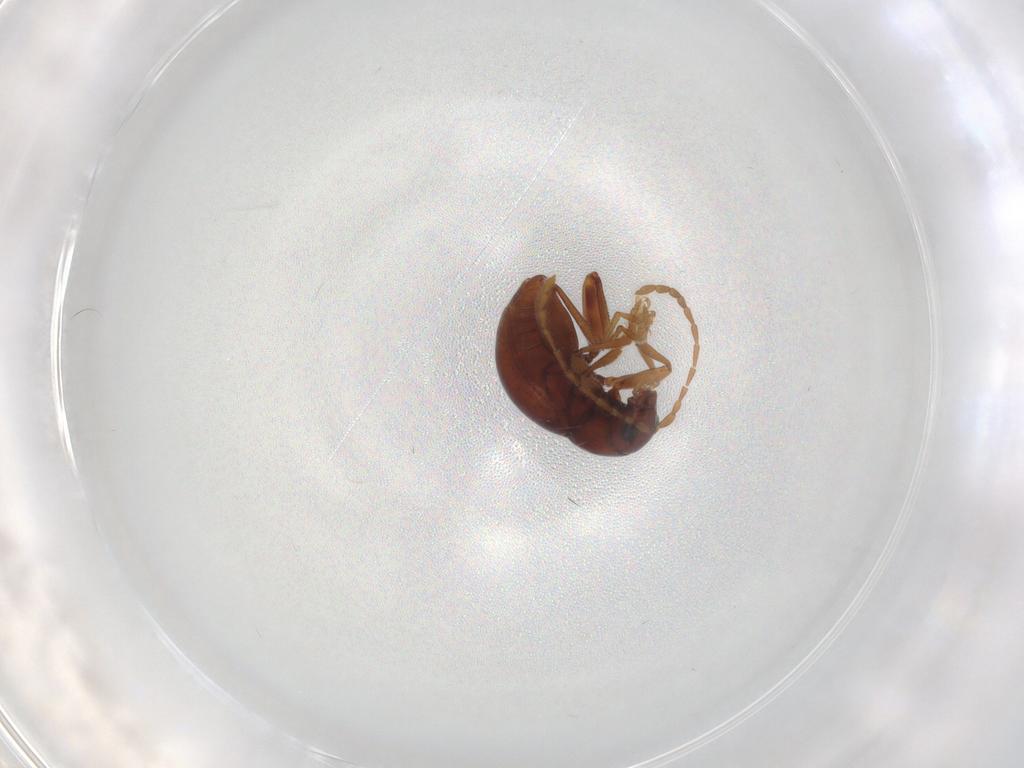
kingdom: Animalia
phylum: Arthropoda
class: Insecta
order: Coleoptera
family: Chrysomelidae
